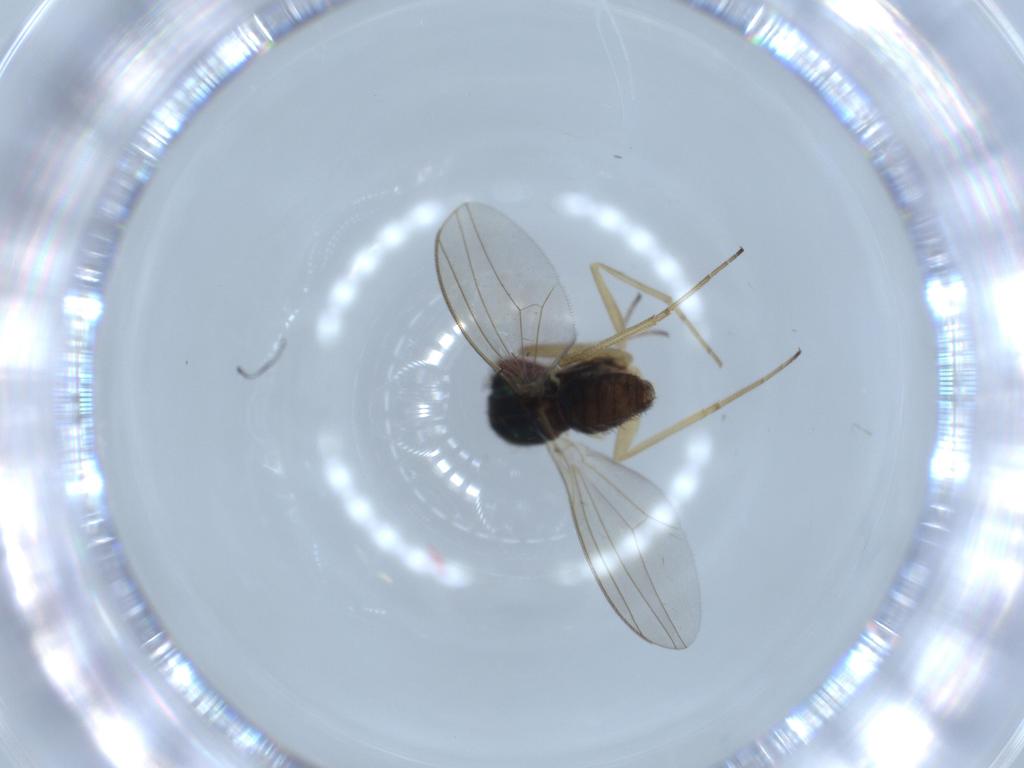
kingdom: Animalia
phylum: Arthropoda
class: Insecta
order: Diptera
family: Dolichopodidae
